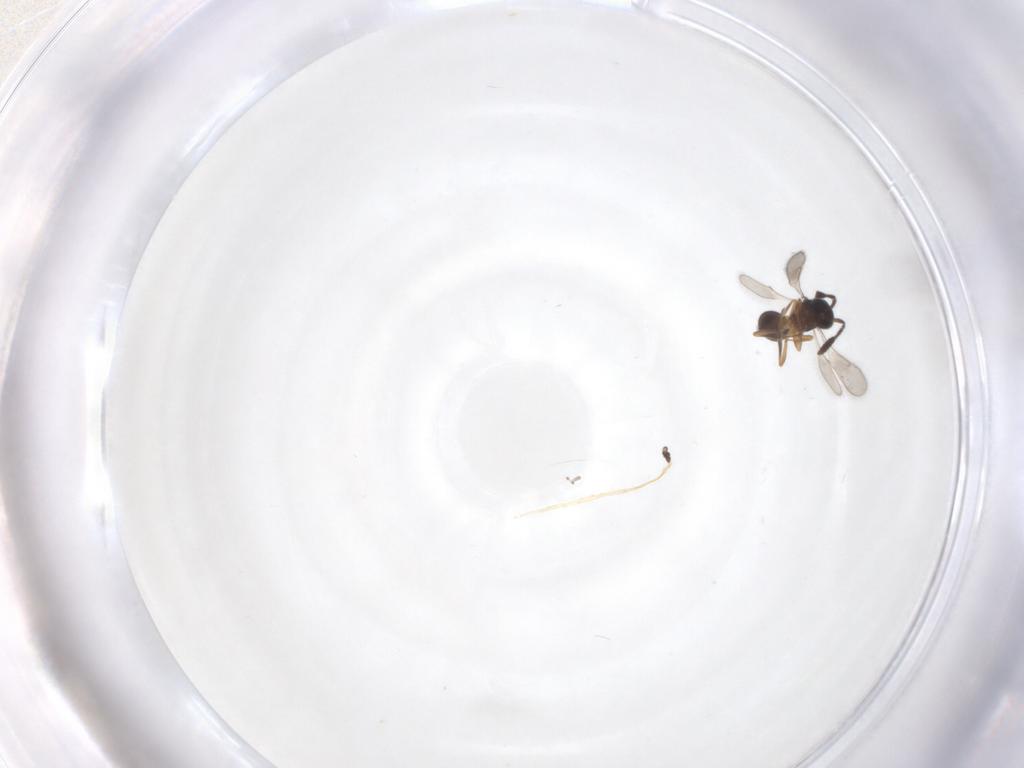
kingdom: Animalia
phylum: Arthropoda
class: Insecta
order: Hymenoptera
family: Scelionidae
